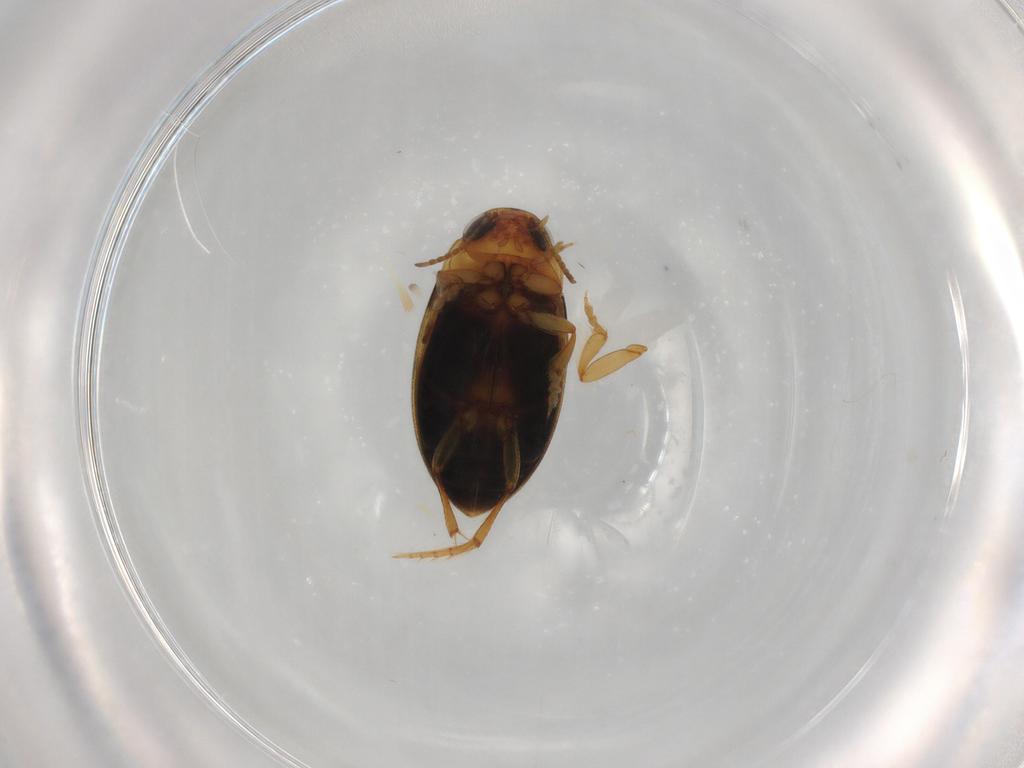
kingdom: Animalia
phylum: Arthropoda
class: Insecta
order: Coleoptera
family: Dytiscidae
